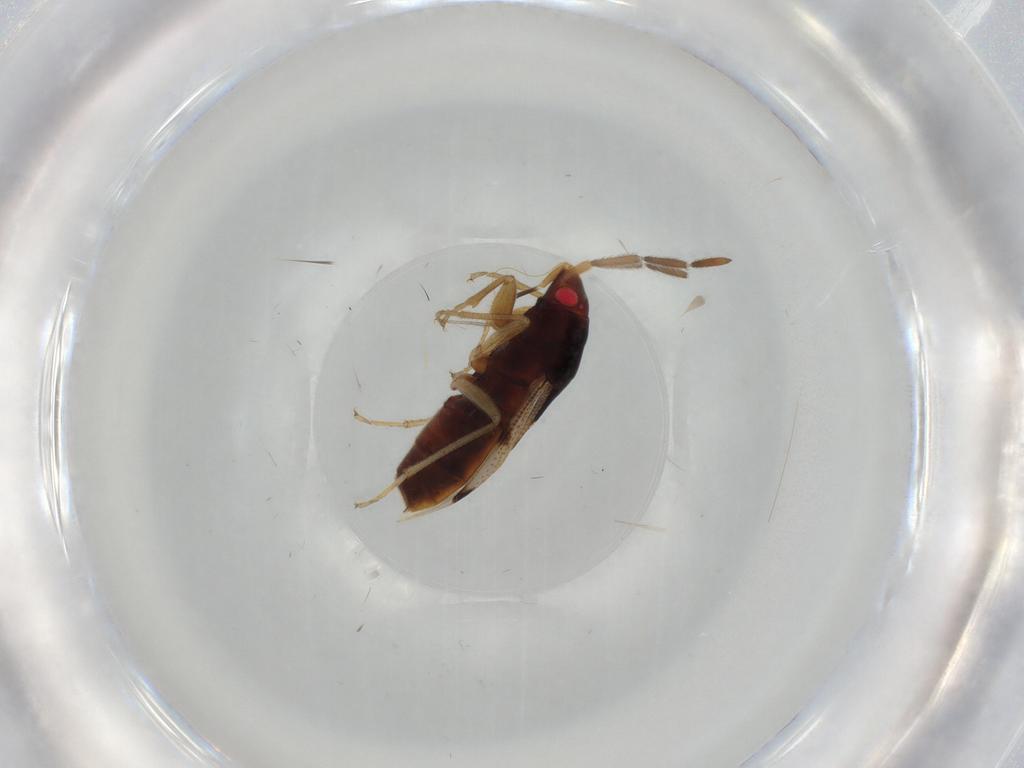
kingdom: Animalia
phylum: Arthropoda
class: Insecta
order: Hemiptera
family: Rhyparochromidae
